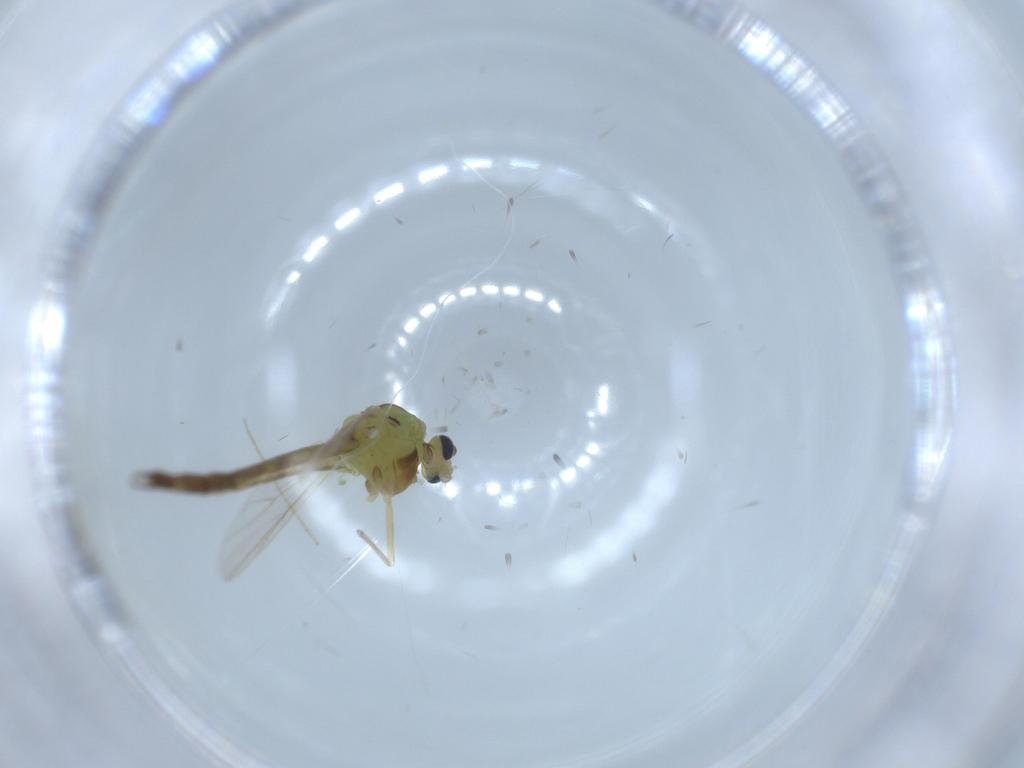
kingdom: Animalia
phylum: Arthropoda
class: Insecta
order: Diptera
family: Chironomidae
